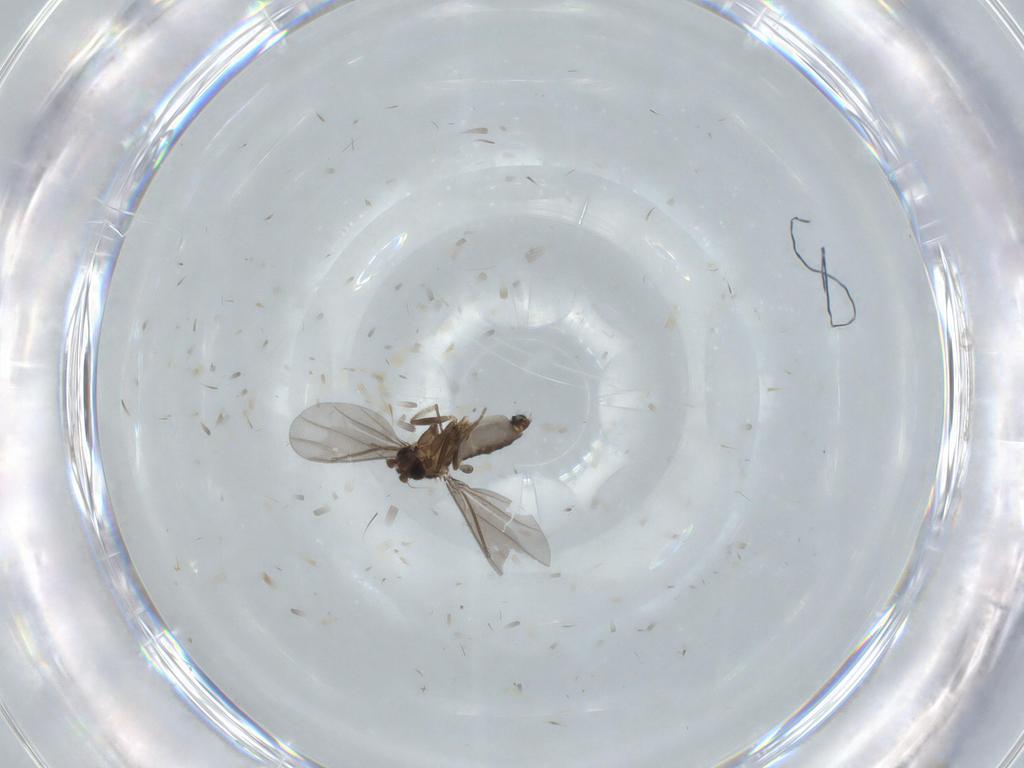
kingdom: Animalia
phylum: Arthropoda
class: Insecta
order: Diptera
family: Phoridae
